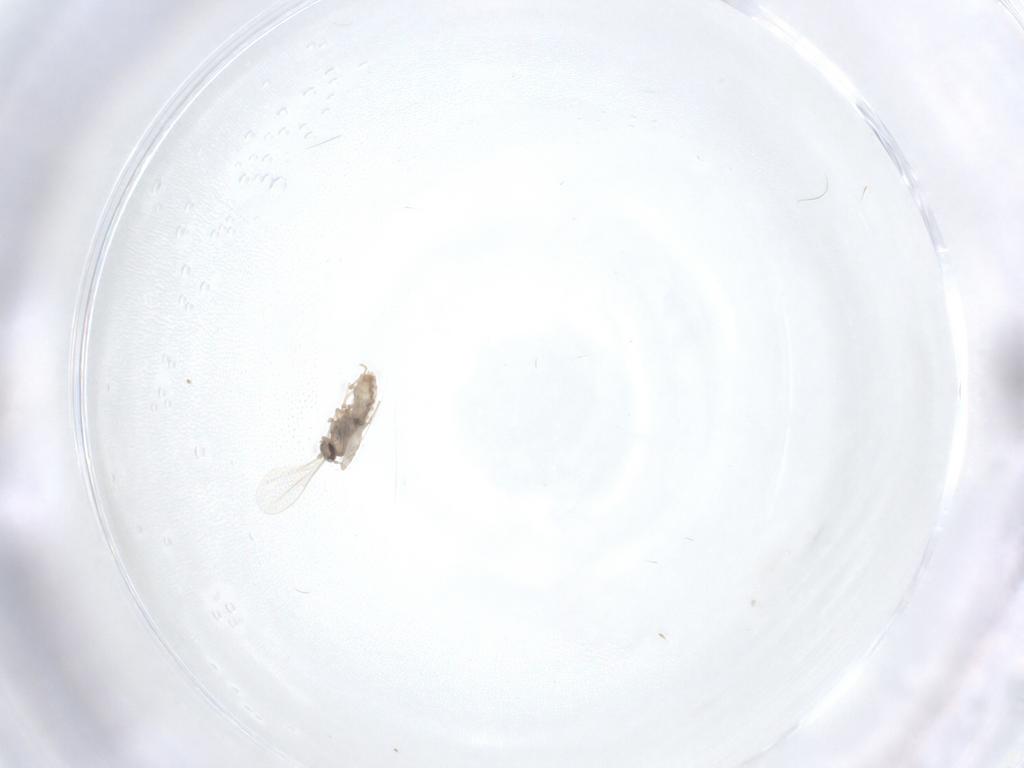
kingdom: Animalia
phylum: Arthropoda
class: Insecta
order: Diptera
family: Cecidomyiidae
